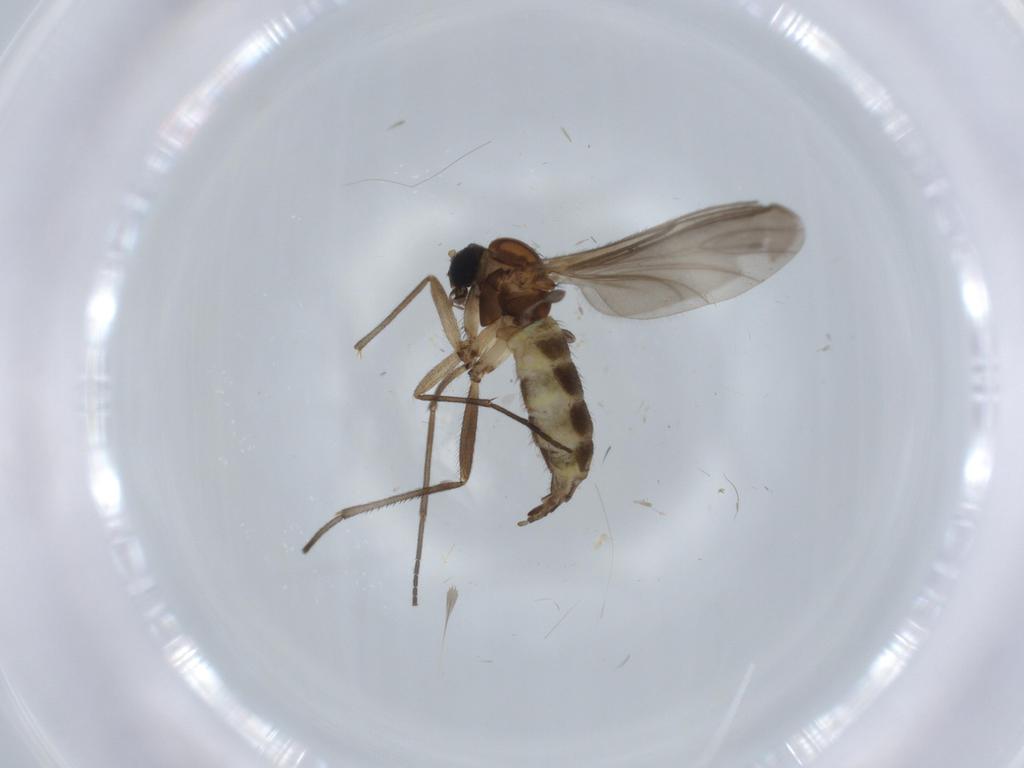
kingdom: Animalia
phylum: Arthropoda
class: Insecta
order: Diptera
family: Sciaridae
